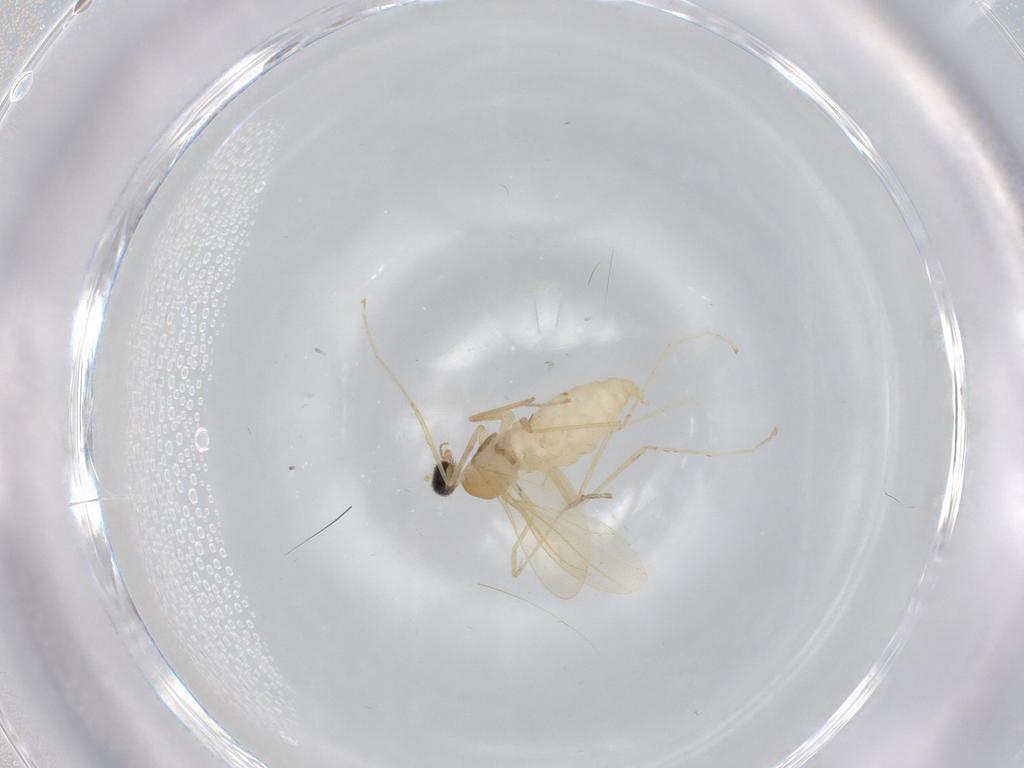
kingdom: Animalia
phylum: Arthropoda
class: Insecta
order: Diptera
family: Cecidomyiidae
